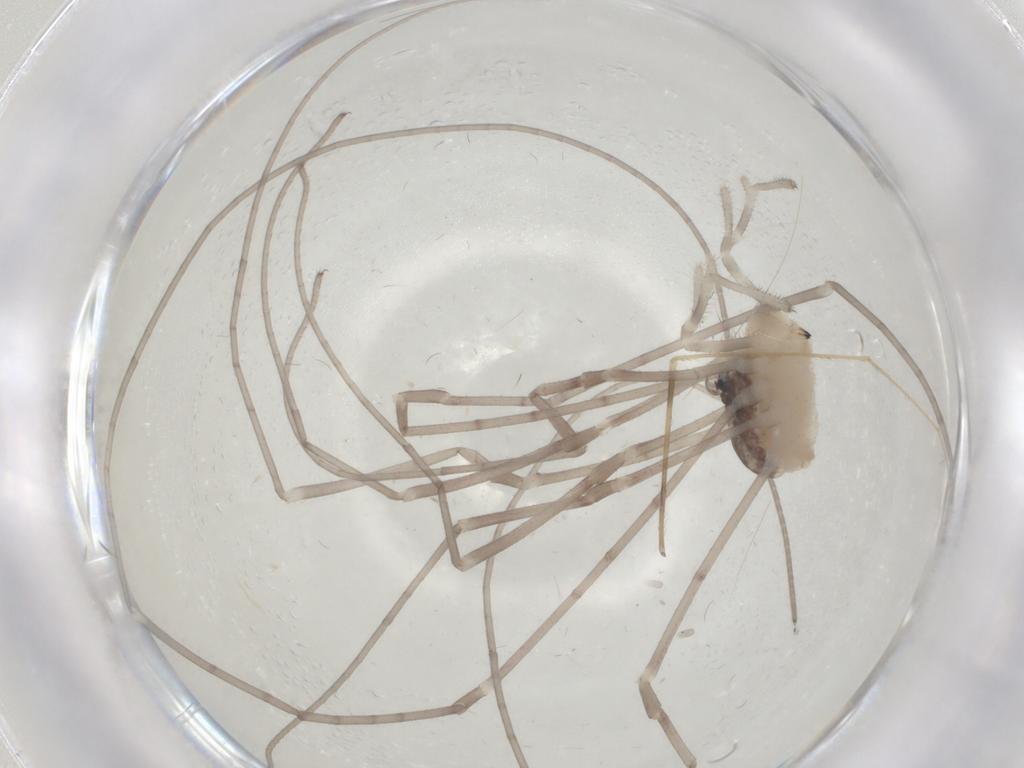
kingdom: Animalia
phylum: Arthropoda
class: Arachnida
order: Opiliones
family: Sclerosomatidae
